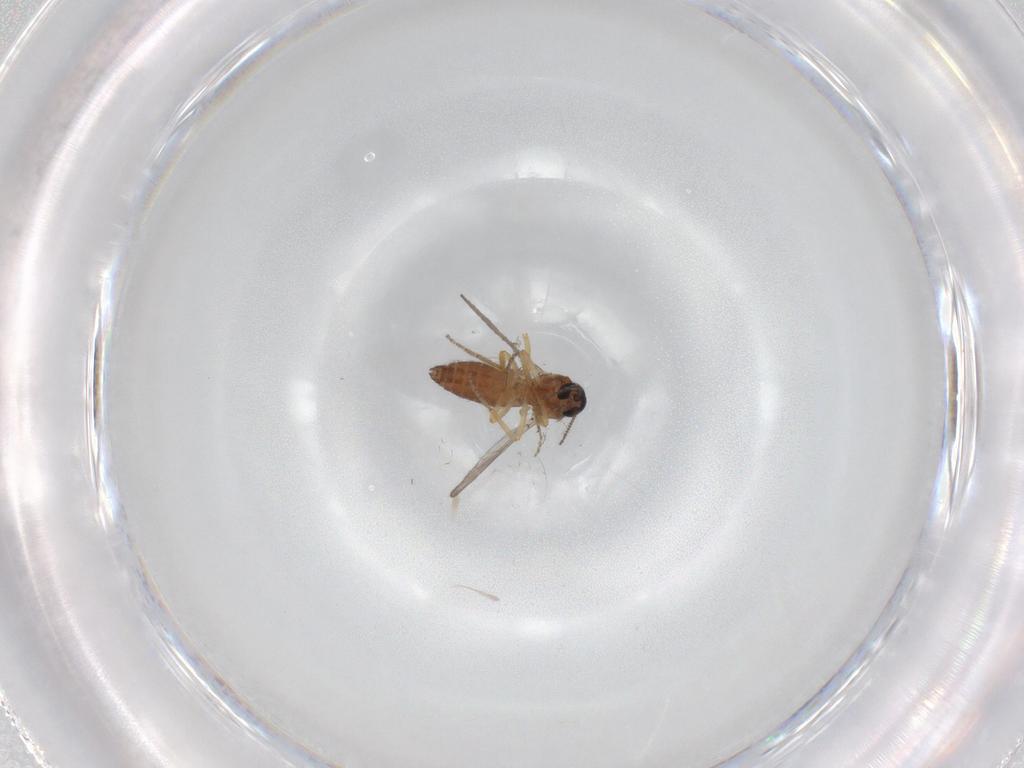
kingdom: Animalia
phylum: Arthropoda
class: Insecta
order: Diptera
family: Ceratopogonidae
